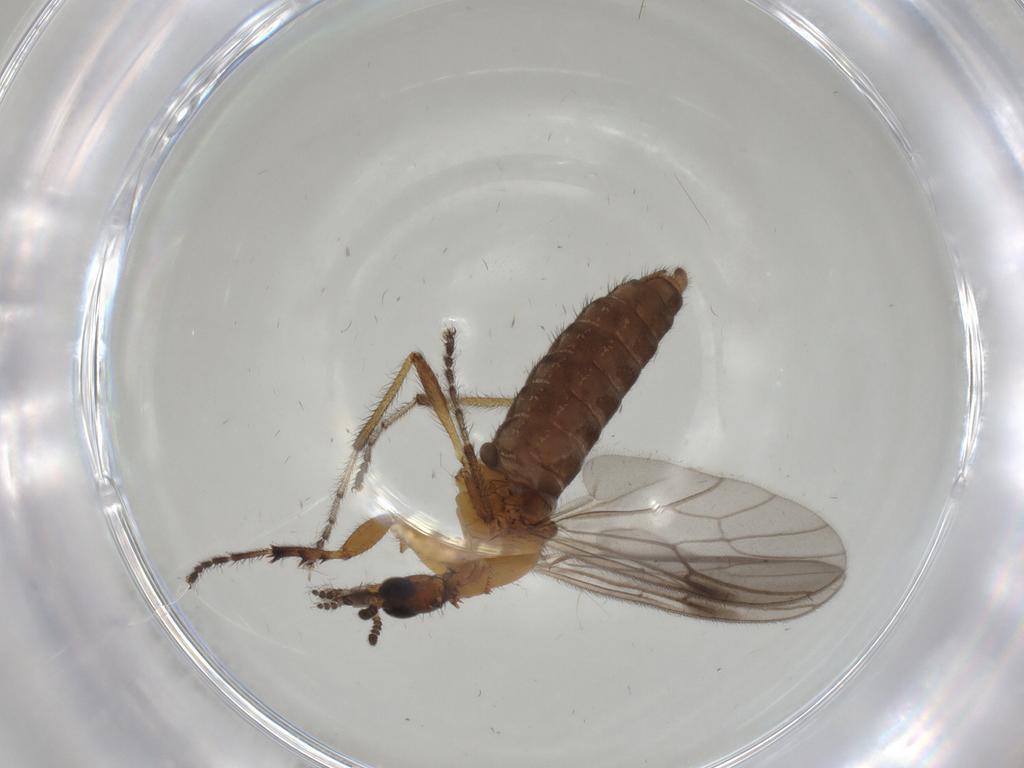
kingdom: Animalia
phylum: Arthropoda
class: Insecta
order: Diptera
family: Bibionidae
